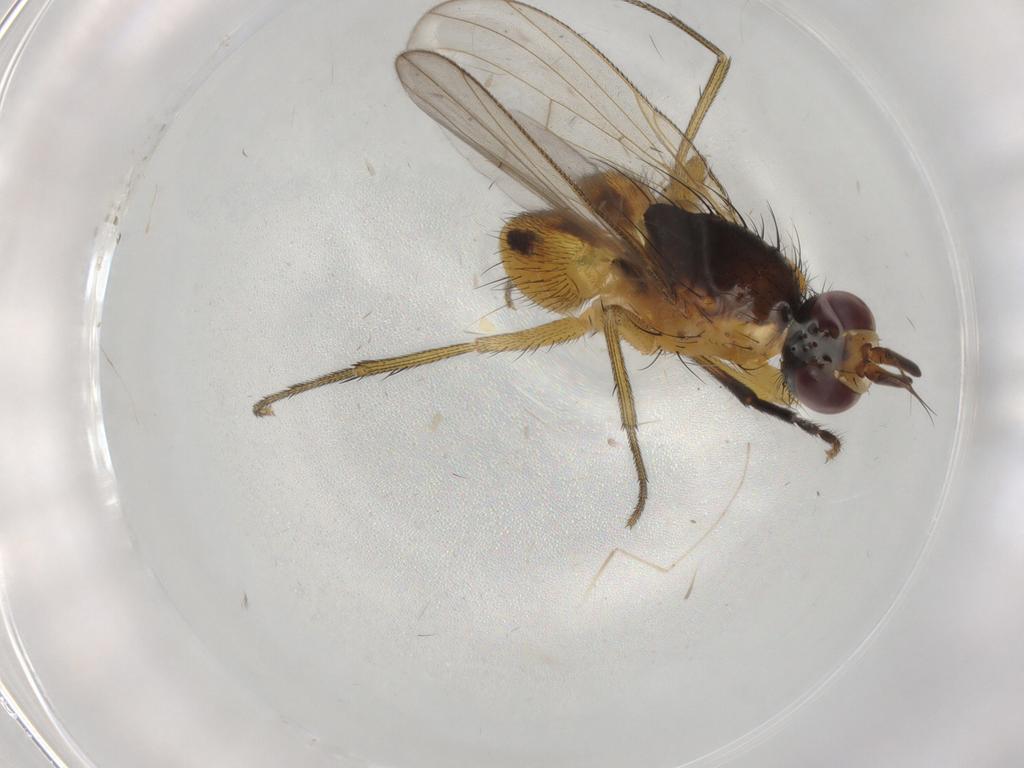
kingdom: Animalia
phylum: Arthropoda
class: Insecta
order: Diptera
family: Muscidae
